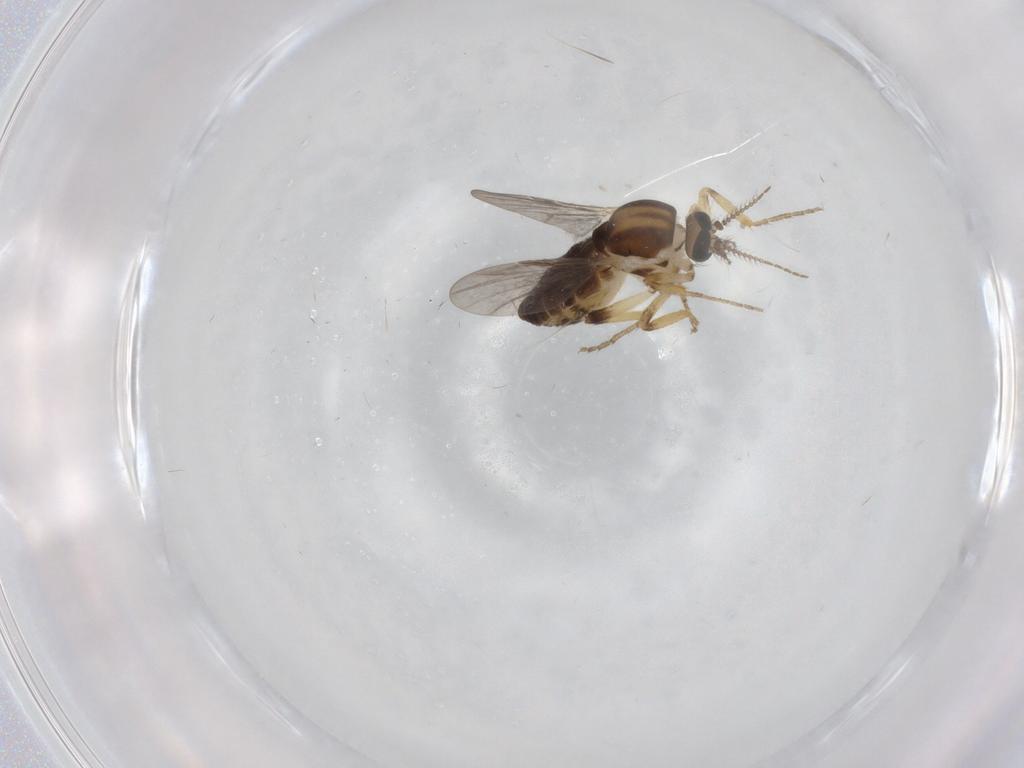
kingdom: Animalia
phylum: Arthropoda
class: Insecta
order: Diptera
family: Ceratopogonidae
